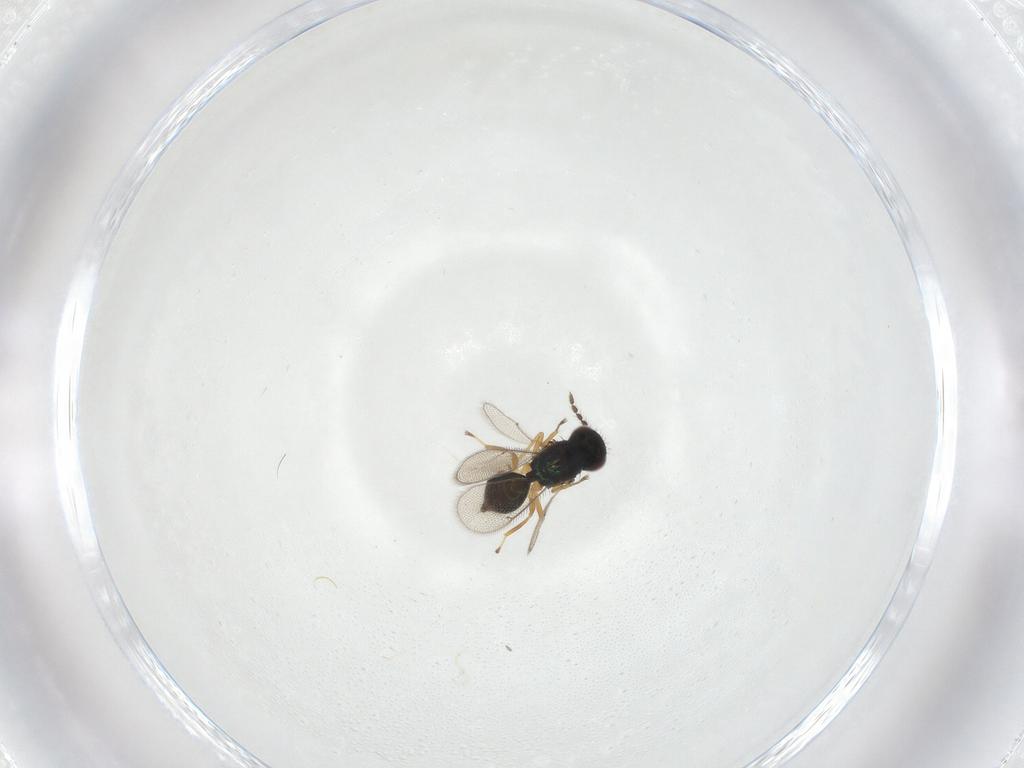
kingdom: Animalia
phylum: Arthropoda
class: Insecta
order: Hymenoptera
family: Eulophidae
